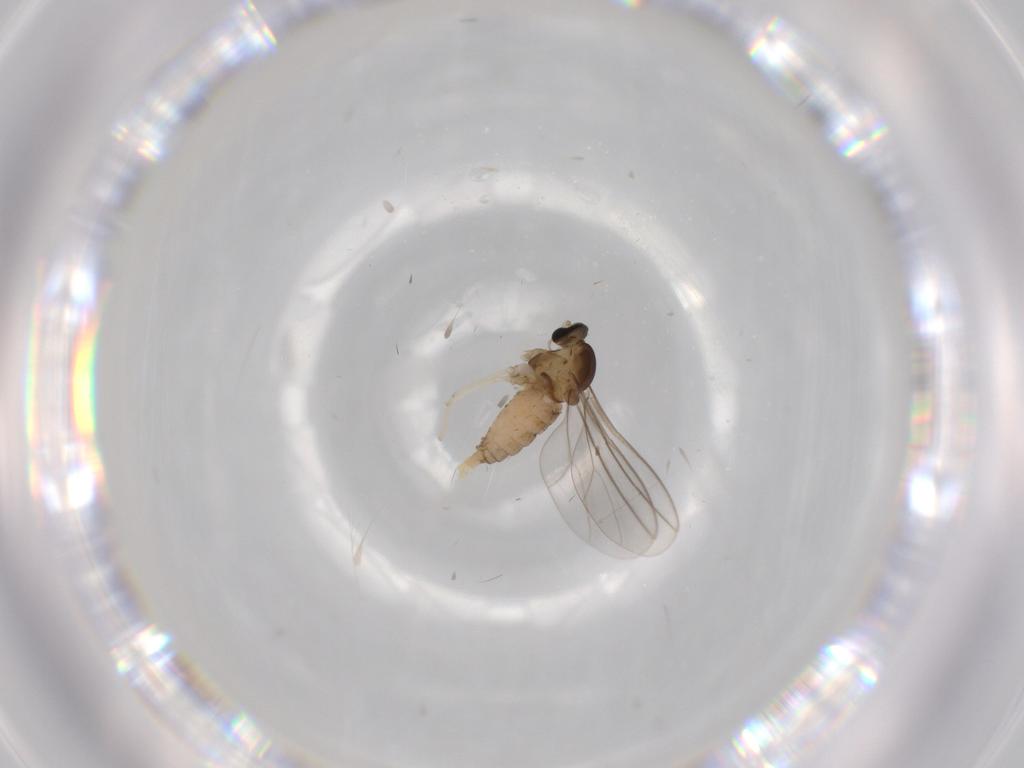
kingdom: Animalia
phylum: Arthropoda
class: Insecta
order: Diptera
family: Cecidomyiidae
